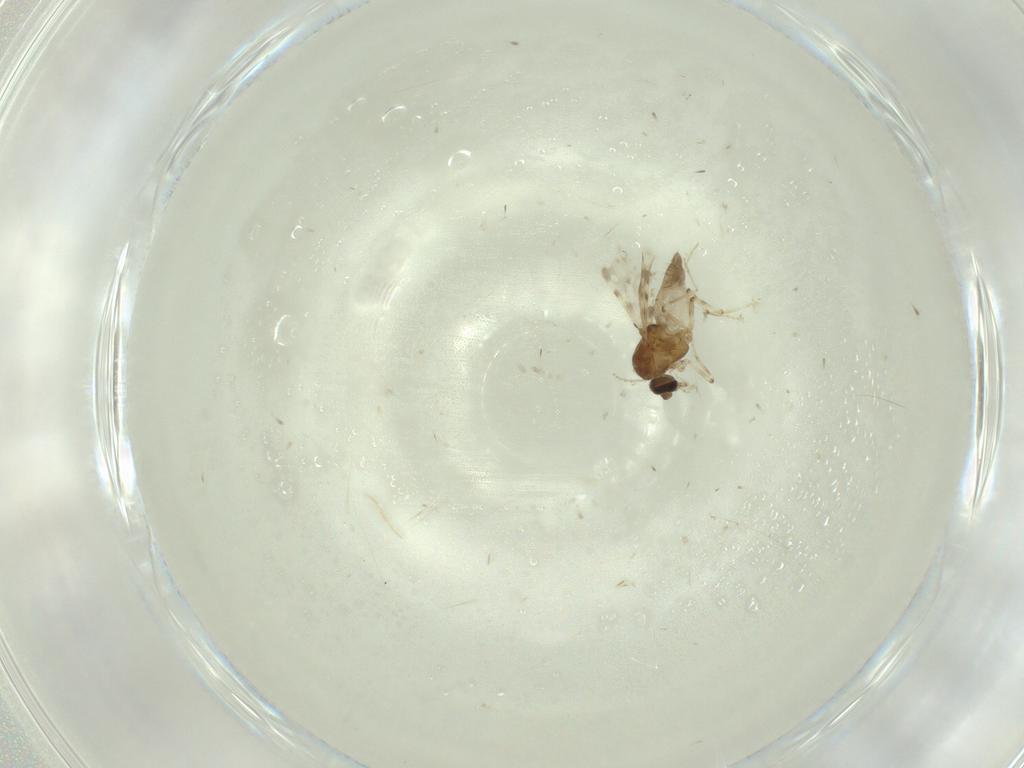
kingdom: Animalia
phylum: Arthropoda
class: Insecta
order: Diptera
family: Ceratopogonidae
